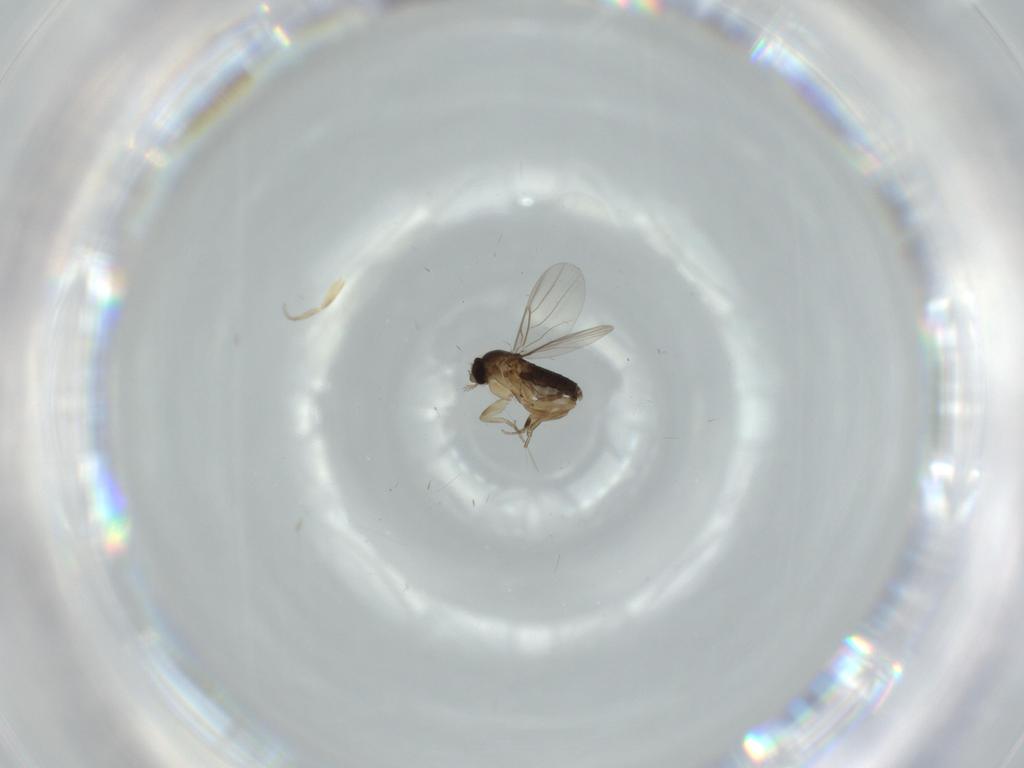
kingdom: Animalia
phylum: Arthropoda
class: Insecta
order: Diptera
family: Phoridae
